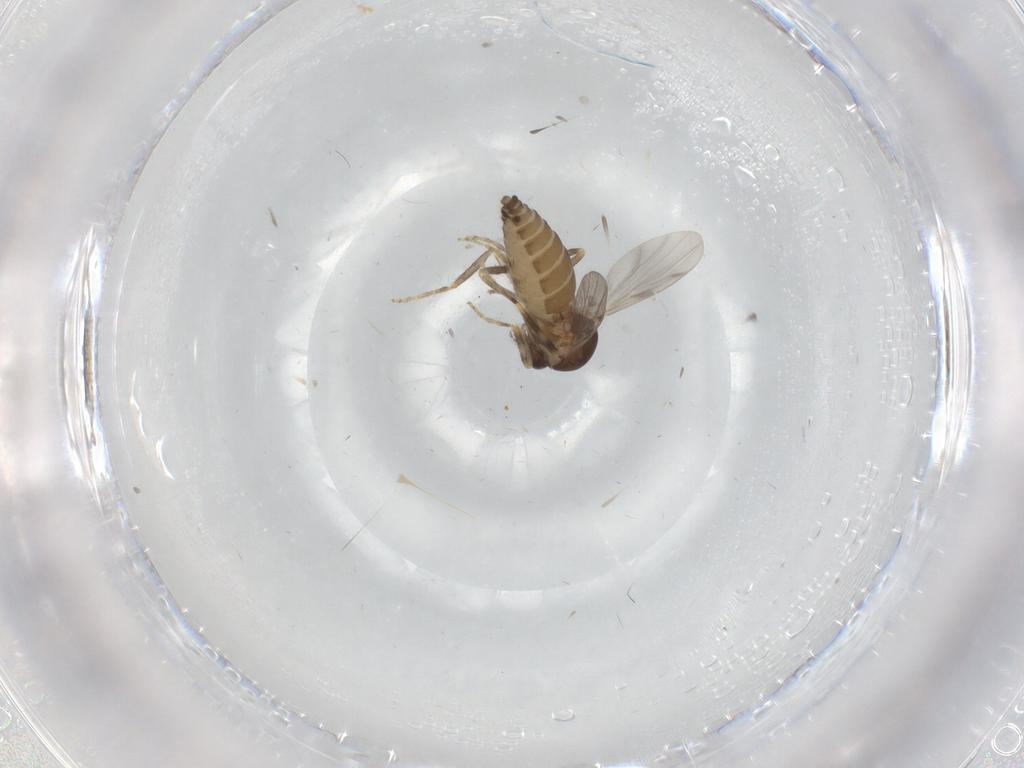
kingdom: Animalia
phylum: Arthropoda
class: Insecta
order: Diptera
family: Ceratopogonidae
